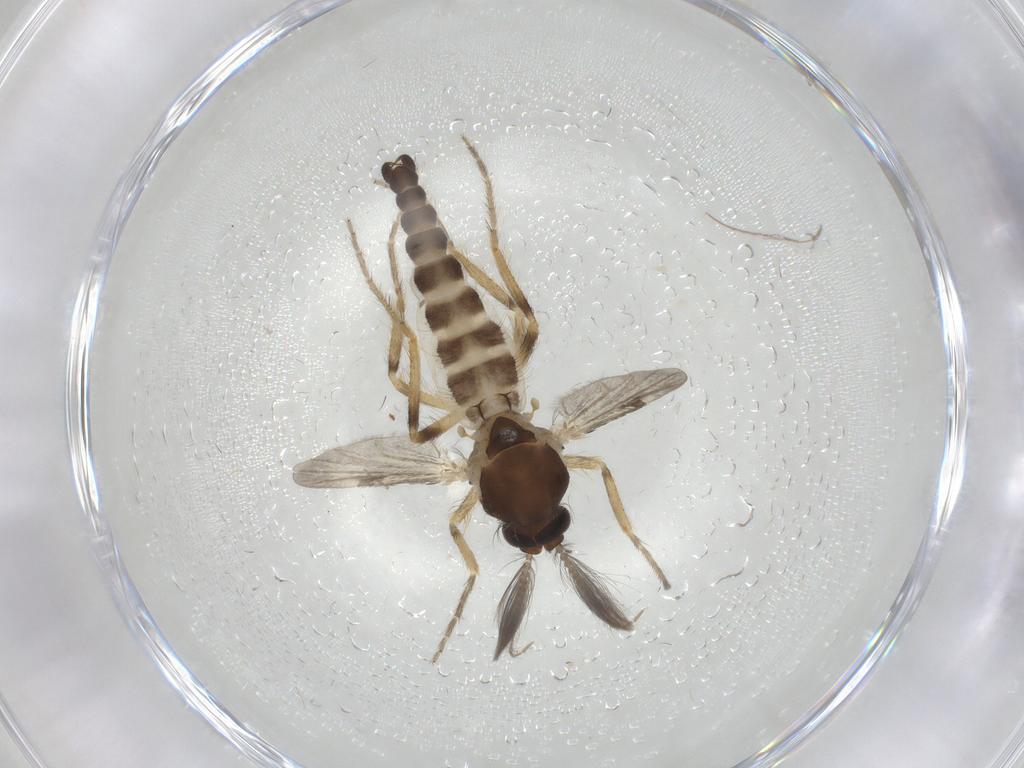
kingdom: Animalia
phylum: Arthropoda
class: Insecta
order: Diptera
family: Ceratopogonidae
